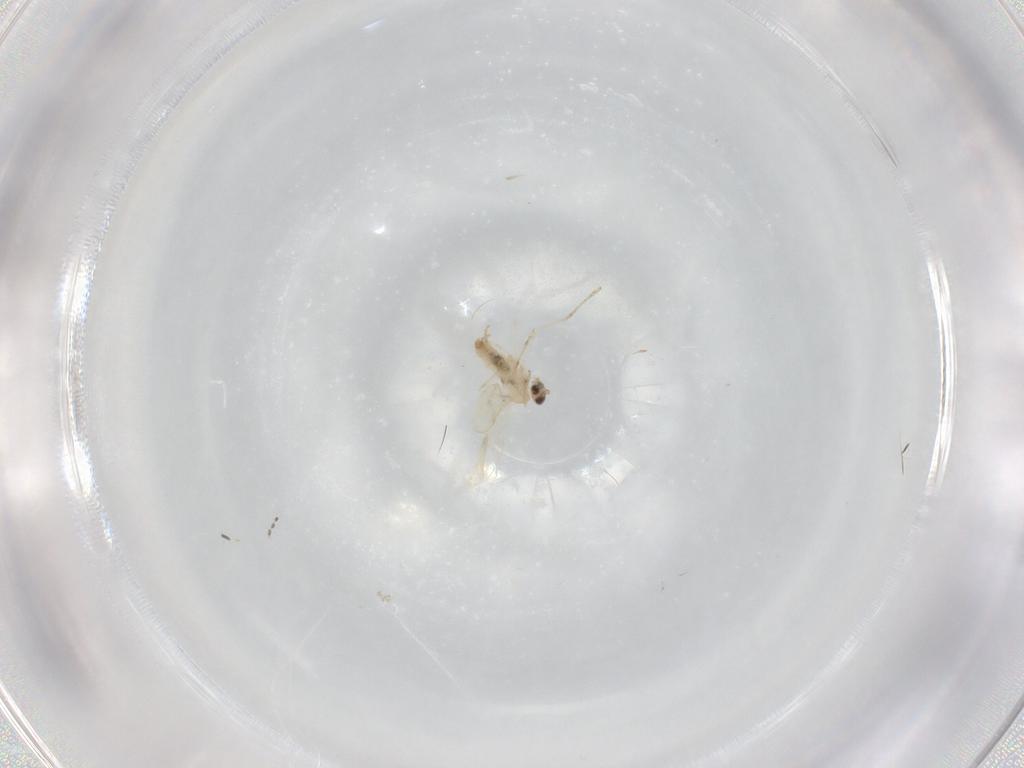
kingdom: Animalia
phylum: Arthropoda
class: Insecta
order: Diptera
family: Cecidomyiidae
